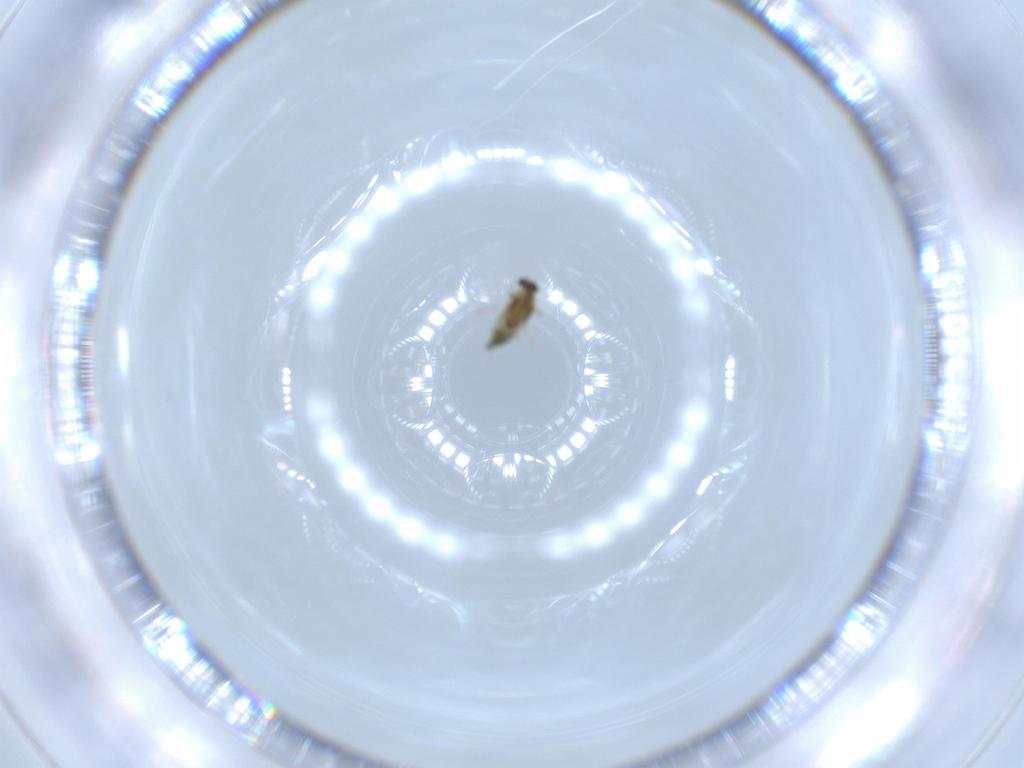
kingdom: Animalia
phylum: Arthropoda
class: Insecta
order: Diptera
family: Chironomidae
